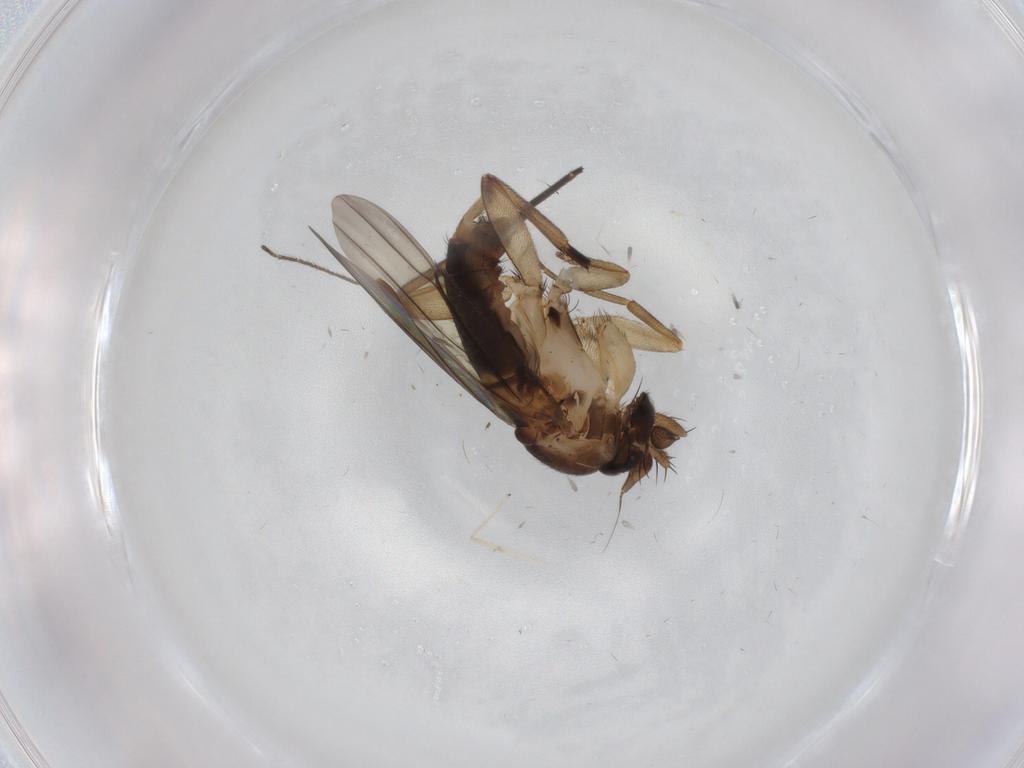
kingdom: Animalia
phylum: Arthropoda
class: Insecta
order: Diptera
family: Phoridae
